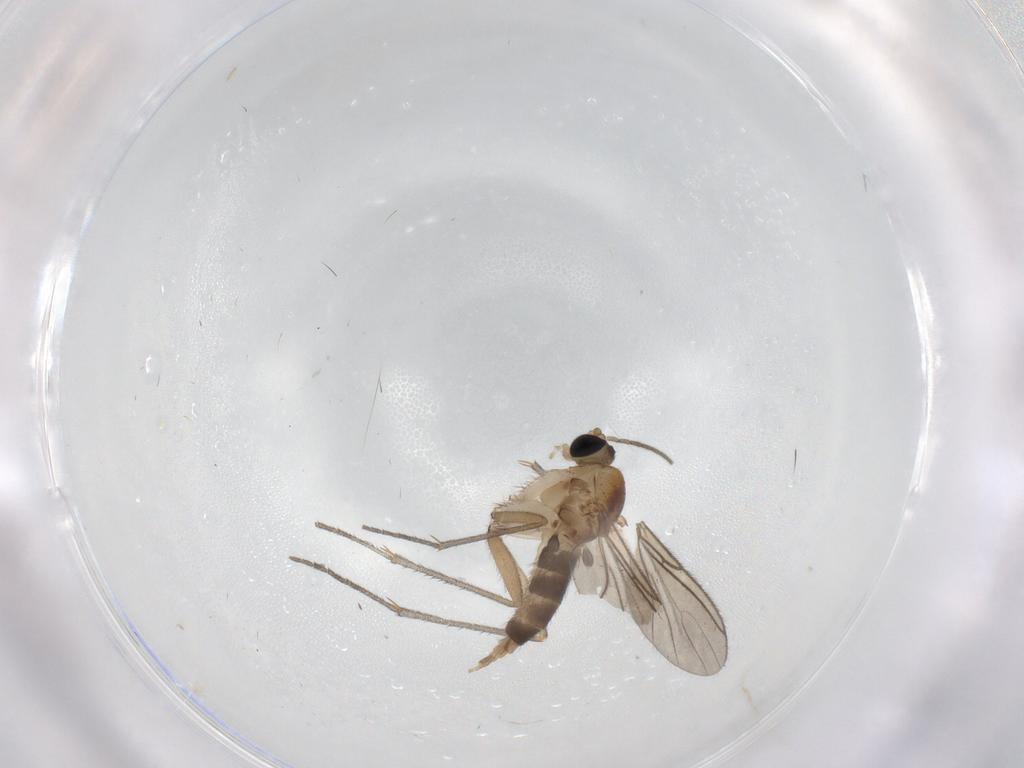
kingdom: Animalia
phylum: Arthropoda
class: Insecta
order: Diptera
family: Sciaridae
